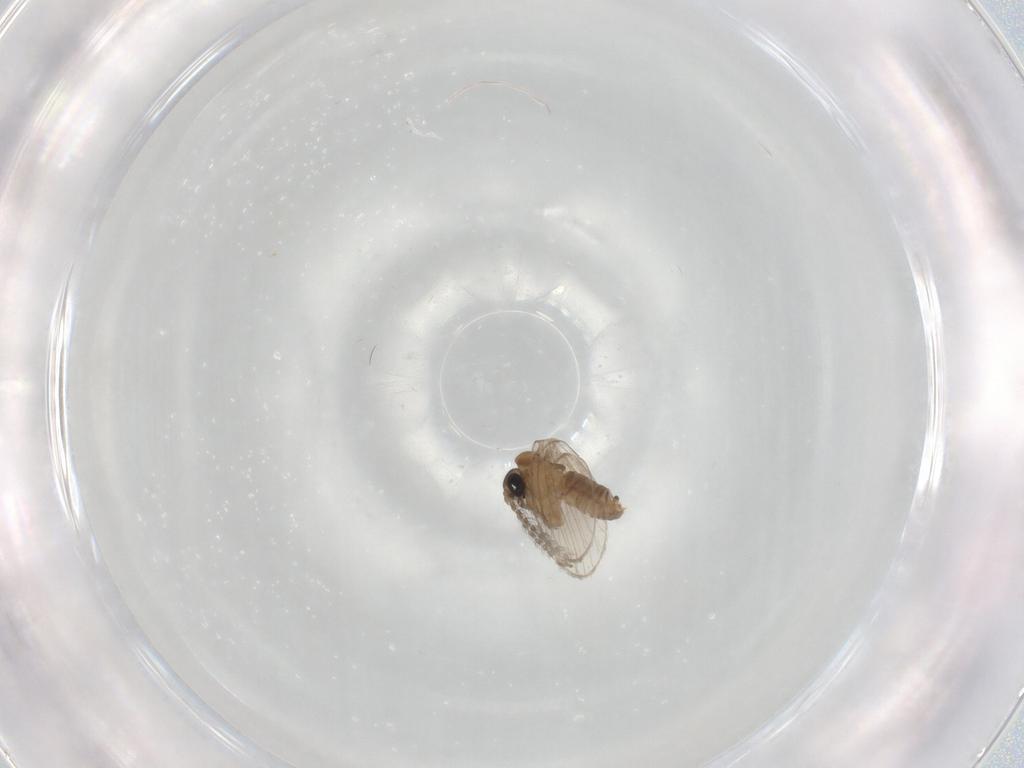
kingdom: Animalia
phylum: Arthropoda
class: Insecta
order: Diptera
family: Psychodidae
